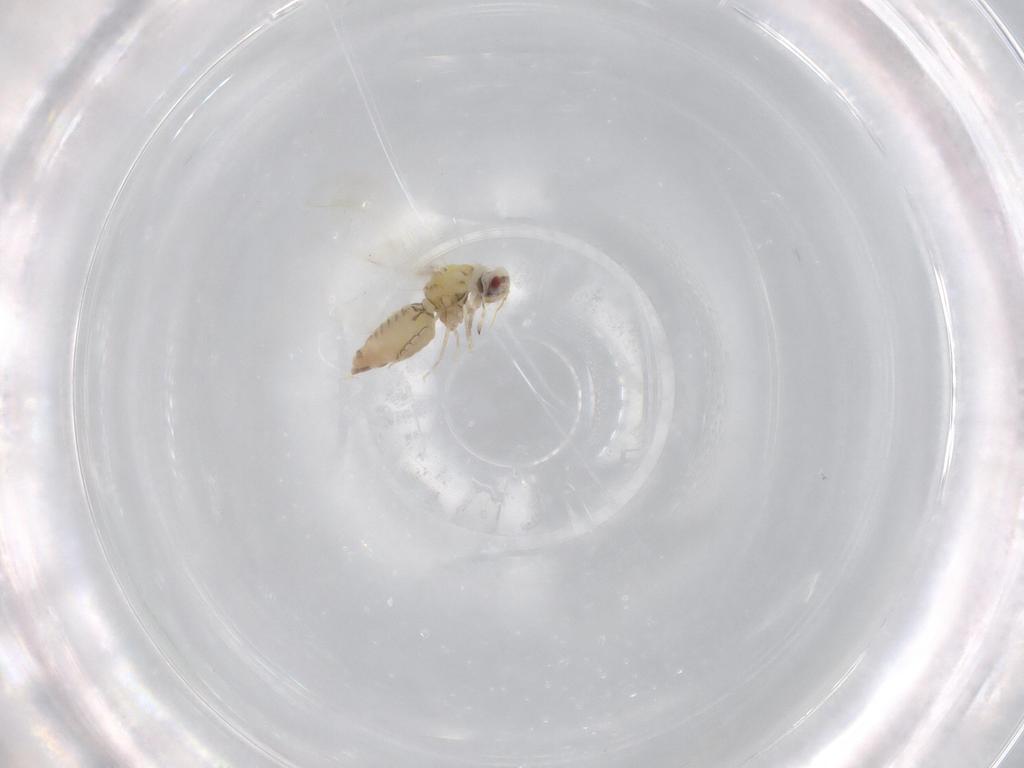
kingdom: Animalia
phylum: Arthropoda
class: Insecta
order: Hemiptera
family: Aleyrodidae
